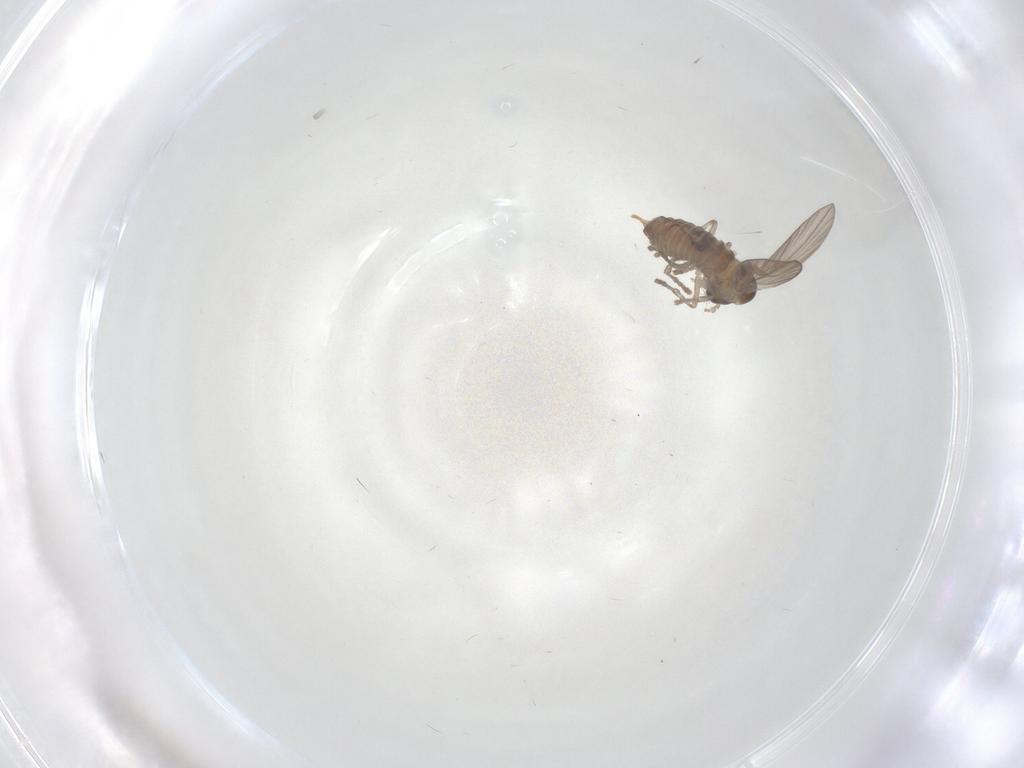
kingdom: Animalia
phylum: Arthropoda
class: Insecta
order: Diptera
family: Psychodidae
